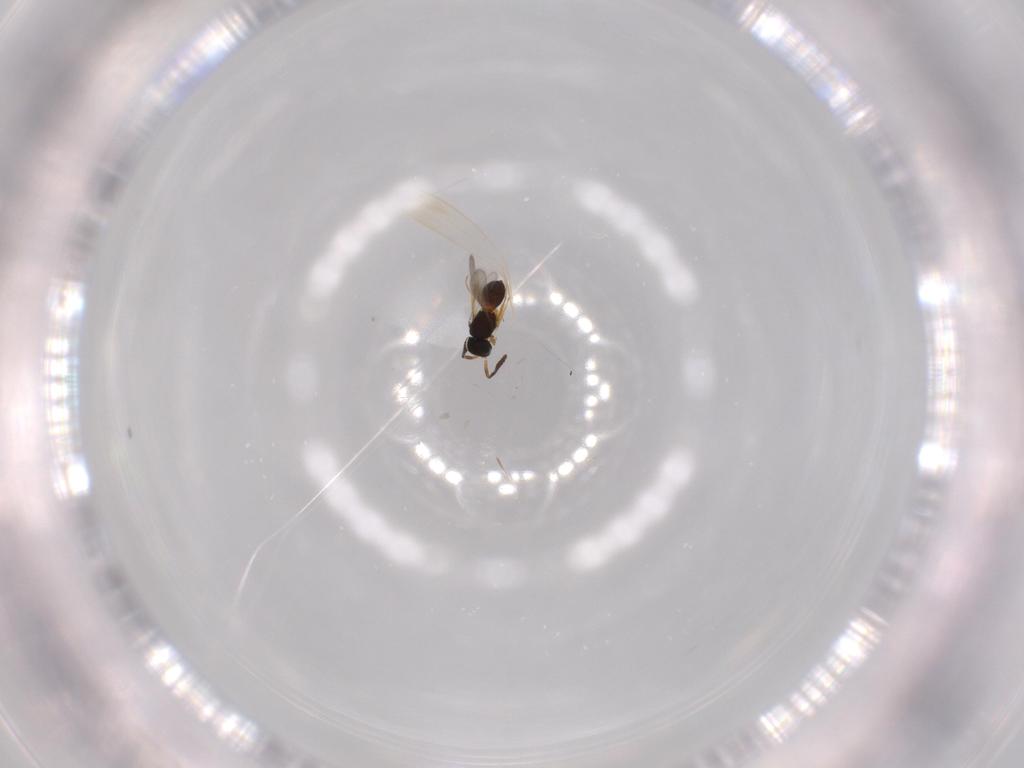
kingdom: Animalia
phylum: Arthropoda
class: Insecta
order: Hymenoptera
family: Scelionidae
